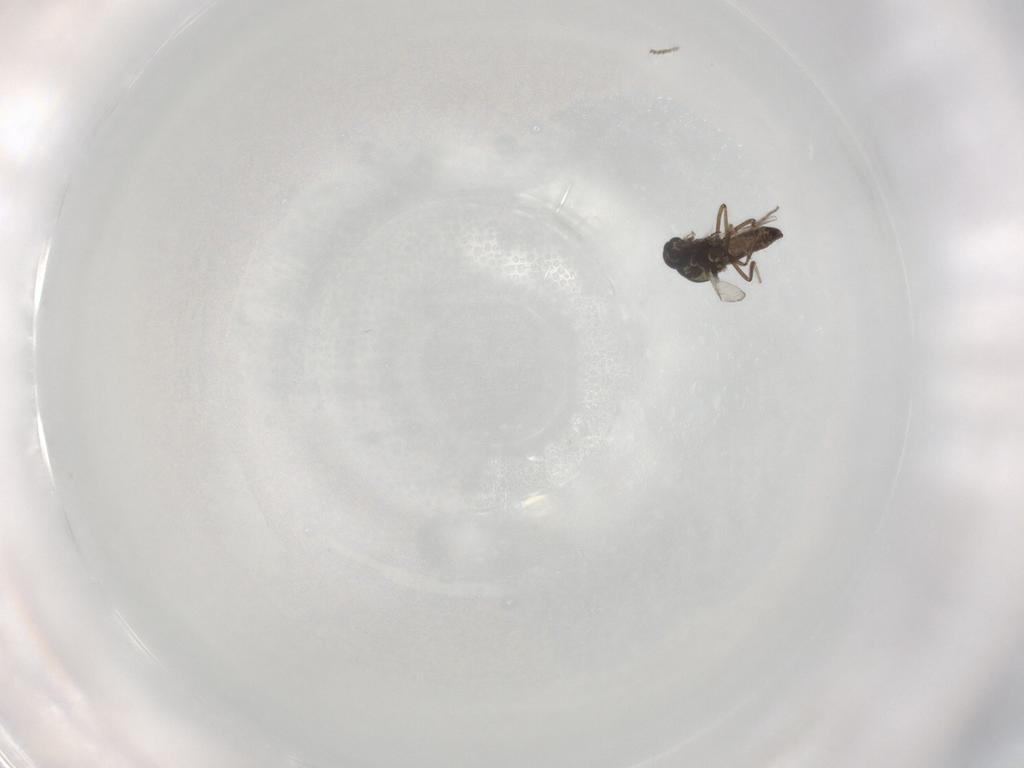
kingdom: Animalia
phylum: Arthropoda
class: Insecta
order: Diptera
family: Ceratopogonidae
